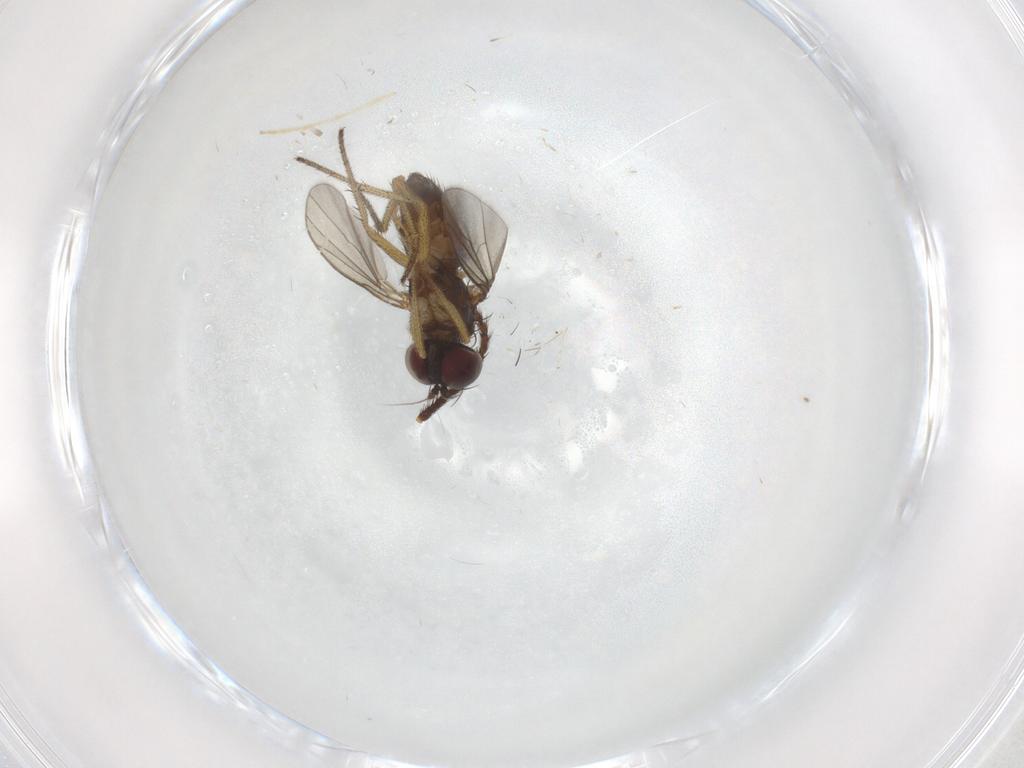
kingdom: Animalia
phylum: Arthropoda
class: Insecta
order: Diptera
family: Muscidae
